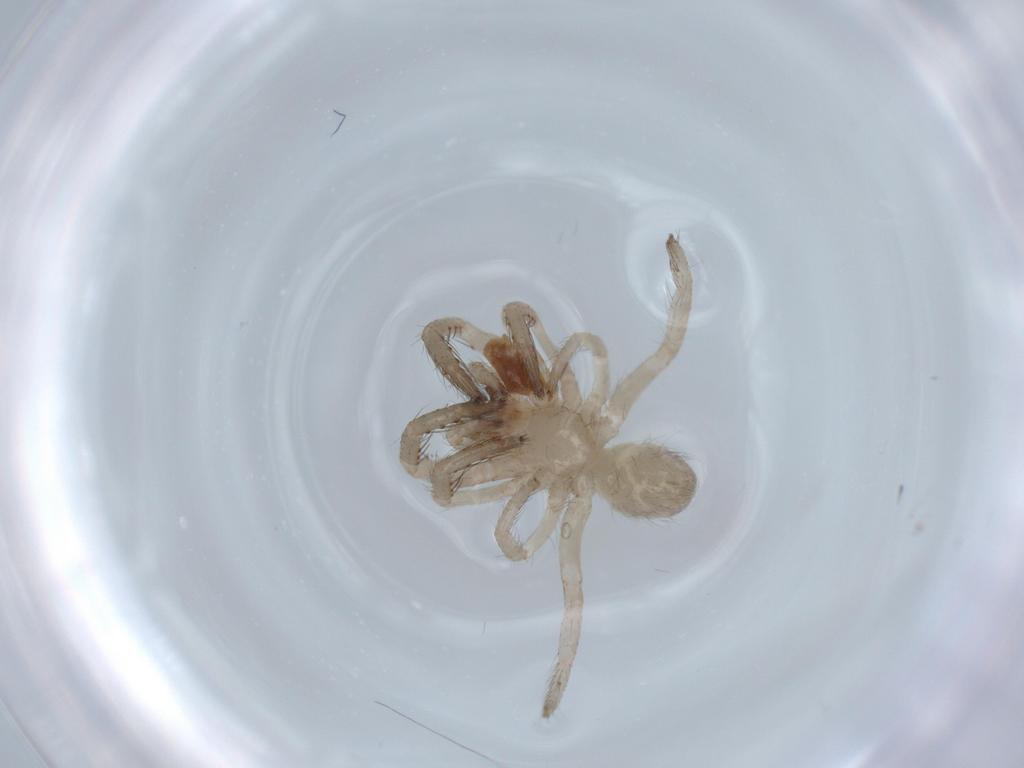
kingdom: Animalia
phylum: Arthropoda
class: Arachnida
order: Araneae
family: Segestriidae
